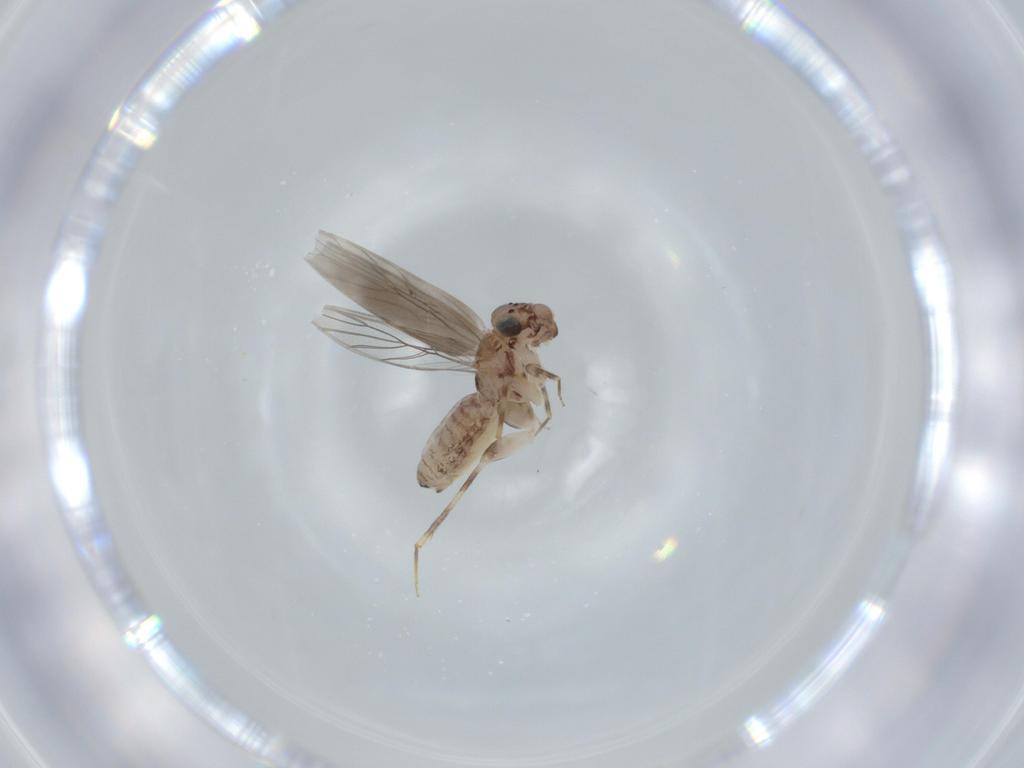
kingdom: Animalia
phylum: Arthropoda
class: Insecta
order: Psocodea
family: Lepidopsocidae
